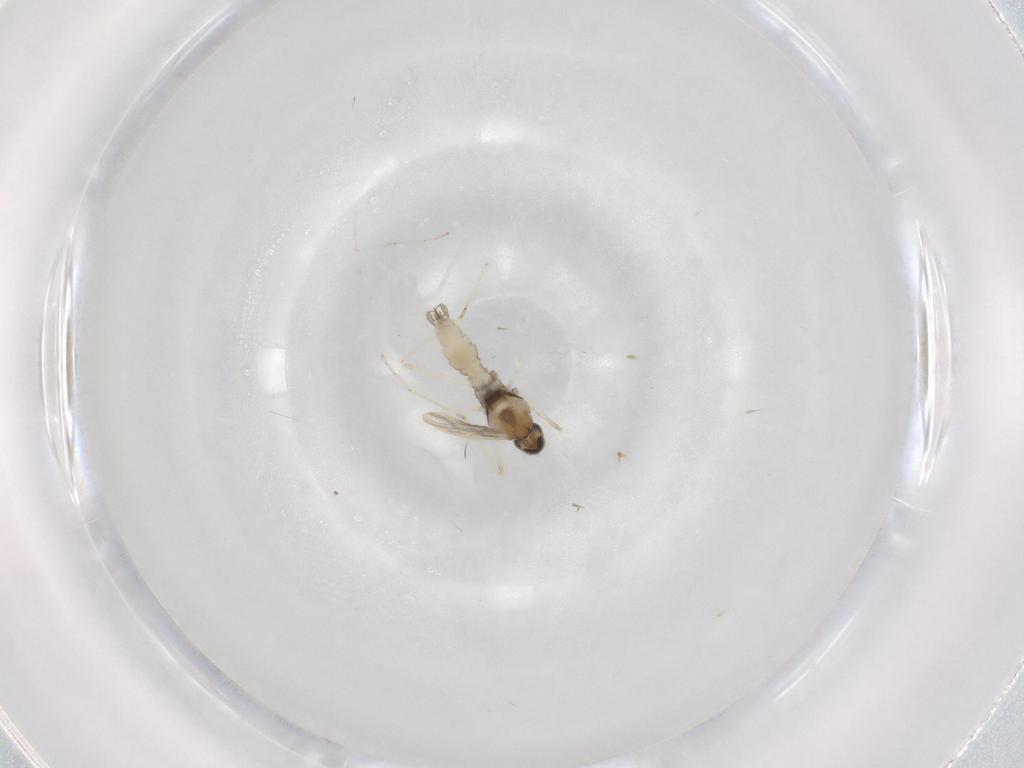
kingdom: Animalia
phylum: Arthropoda
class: Insecta
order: Diptera
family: Cecidomyiidae
